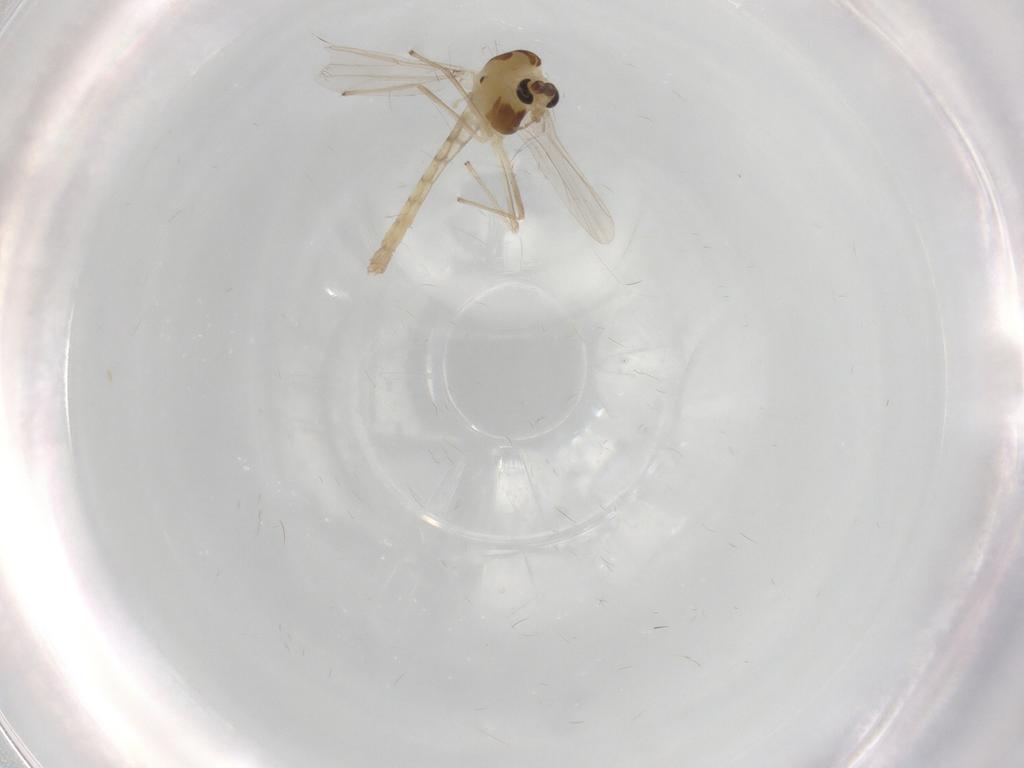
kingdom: Animalia
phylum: Arthropoda
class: Insecta
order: Diptera
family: Chironomidae
